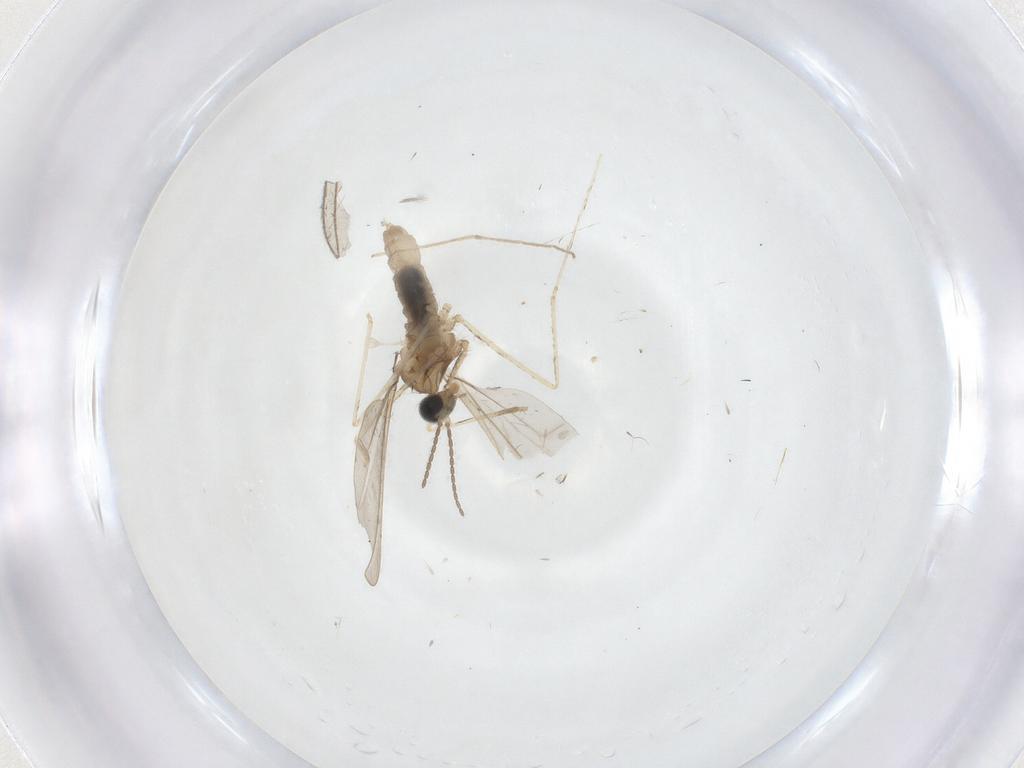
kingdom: Animalia
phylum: Arthropoda
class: Insecta
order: Diptera
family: Cecidomyiidae
